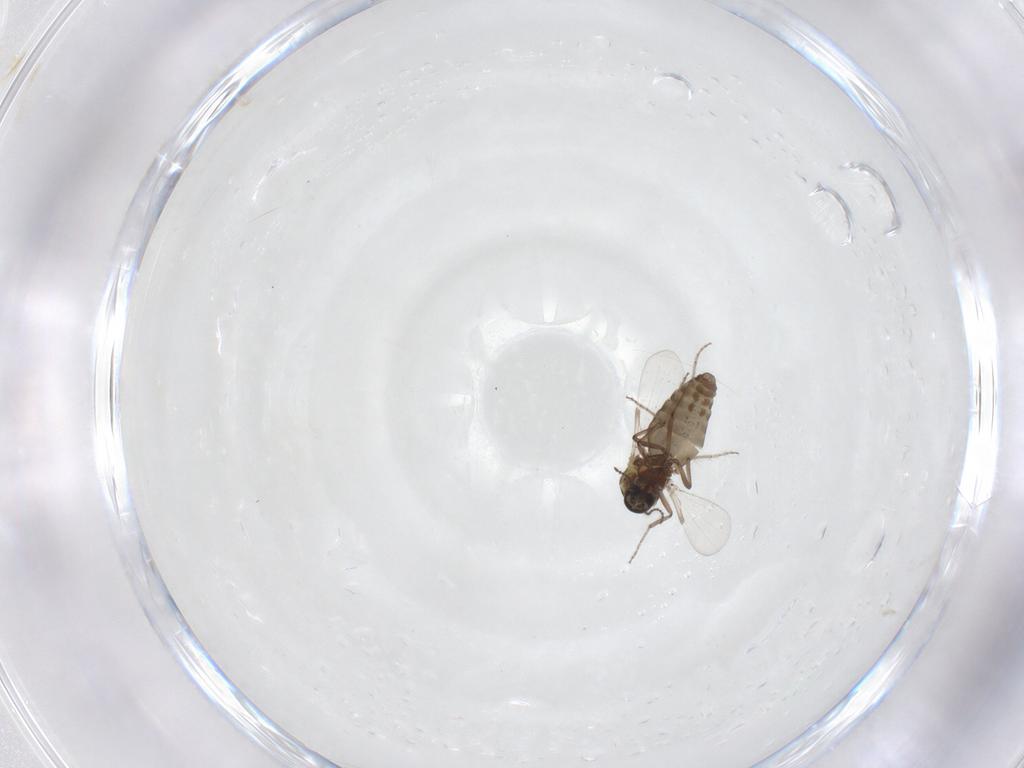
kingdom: Animalia
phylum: Arthropoda
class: Insecta
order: Diptera
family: Ceratopogonidae
